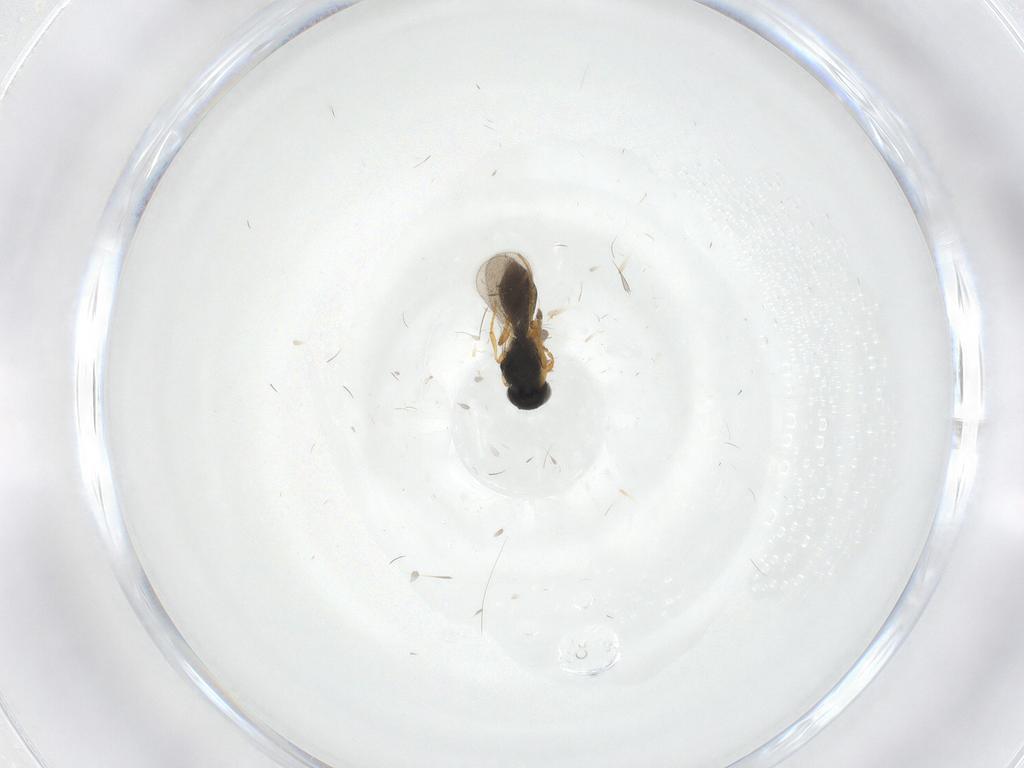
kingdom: Animalia
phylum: Arthropoda
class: Insecta
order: Hymenoptera
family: Platygastridae
